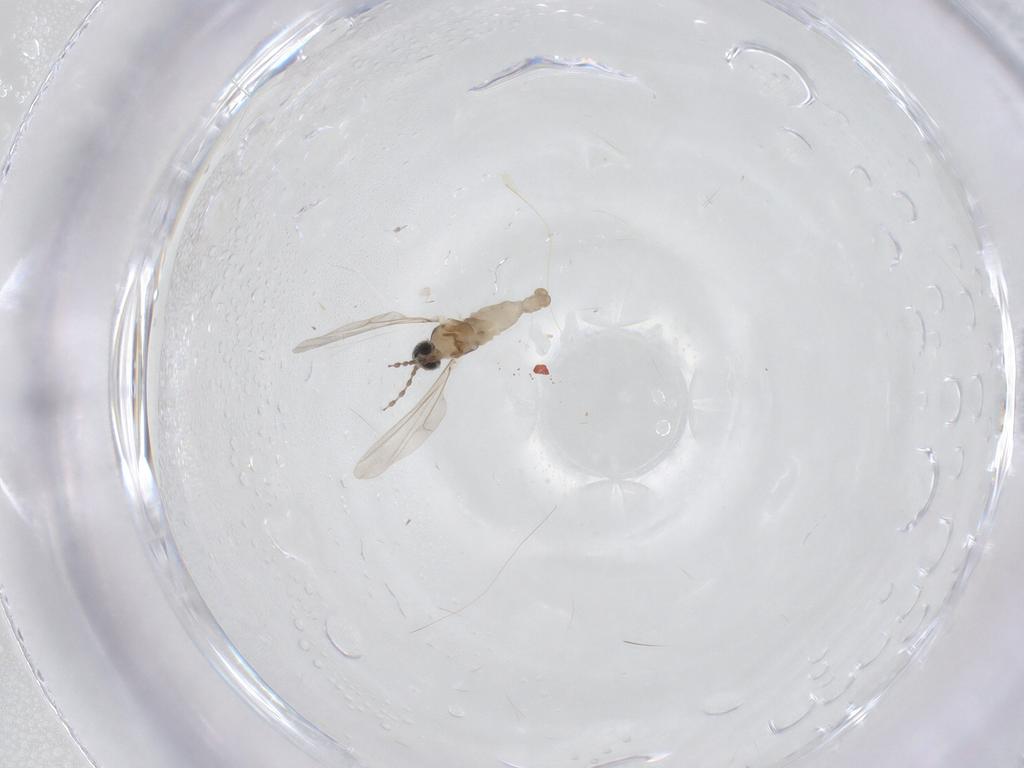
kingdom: Animalia
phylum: Arthropoda
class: Insecta
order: Diptera
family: Cecidomyiidae
